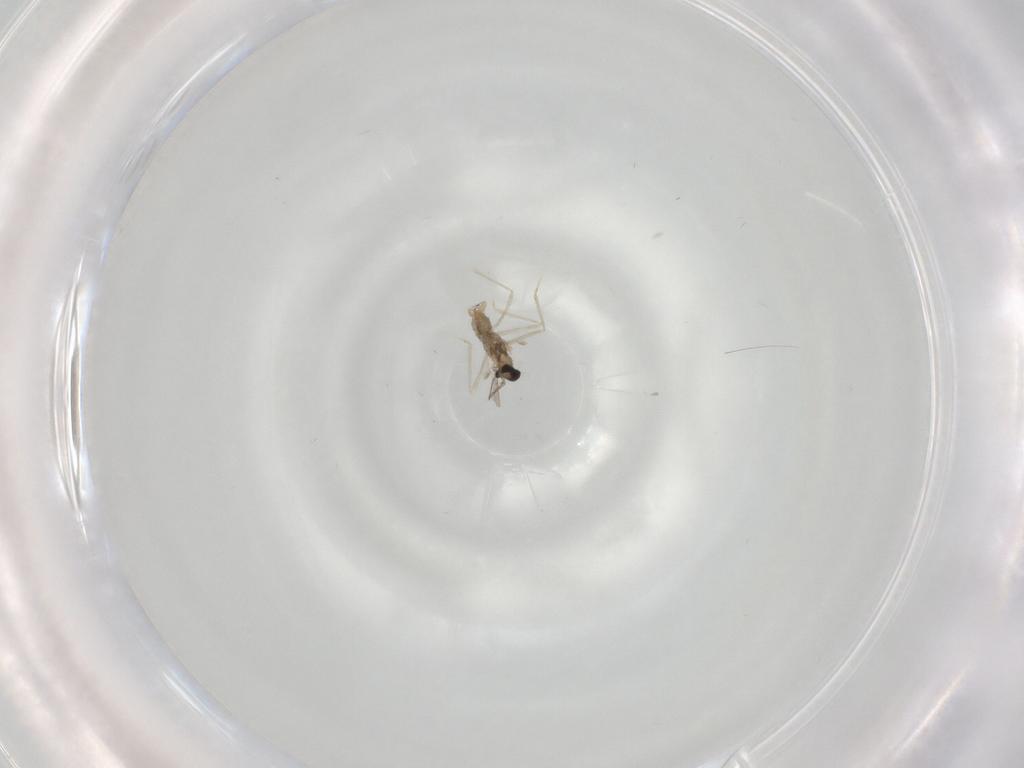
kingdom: Animalia
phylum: Arthropoda
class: Insecta
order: Diptera
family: Cecidomyiidae
